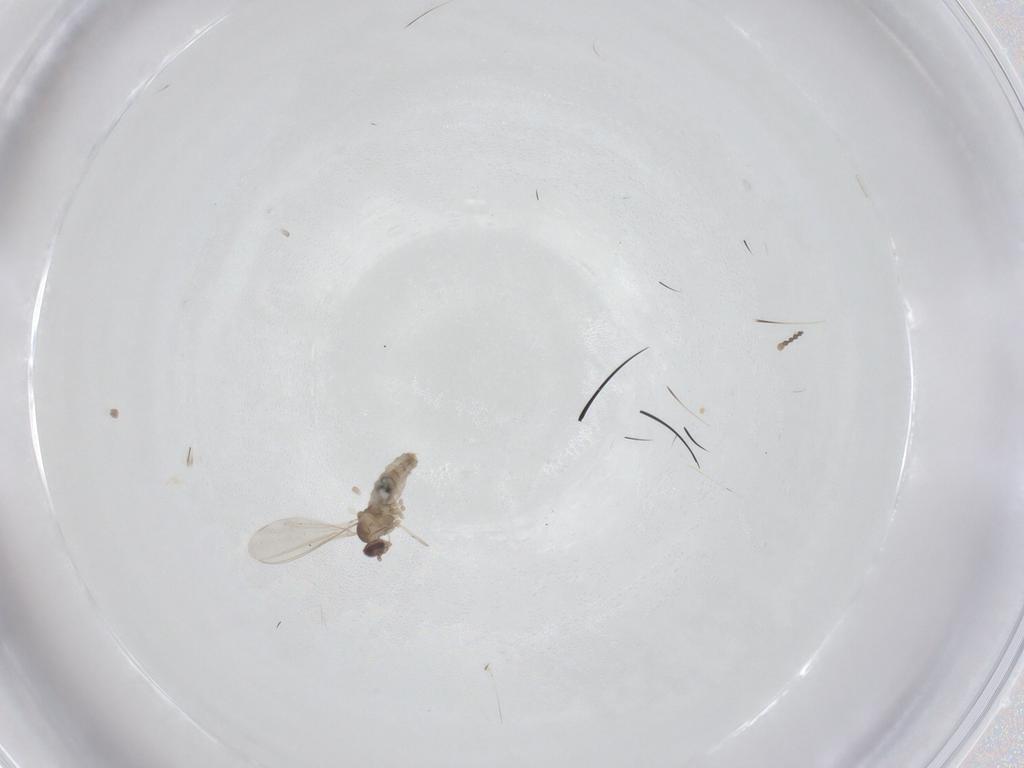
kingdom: Animalia
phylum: Arthropoda
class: Insecta
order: Diptera
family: Cecidomyiidae
